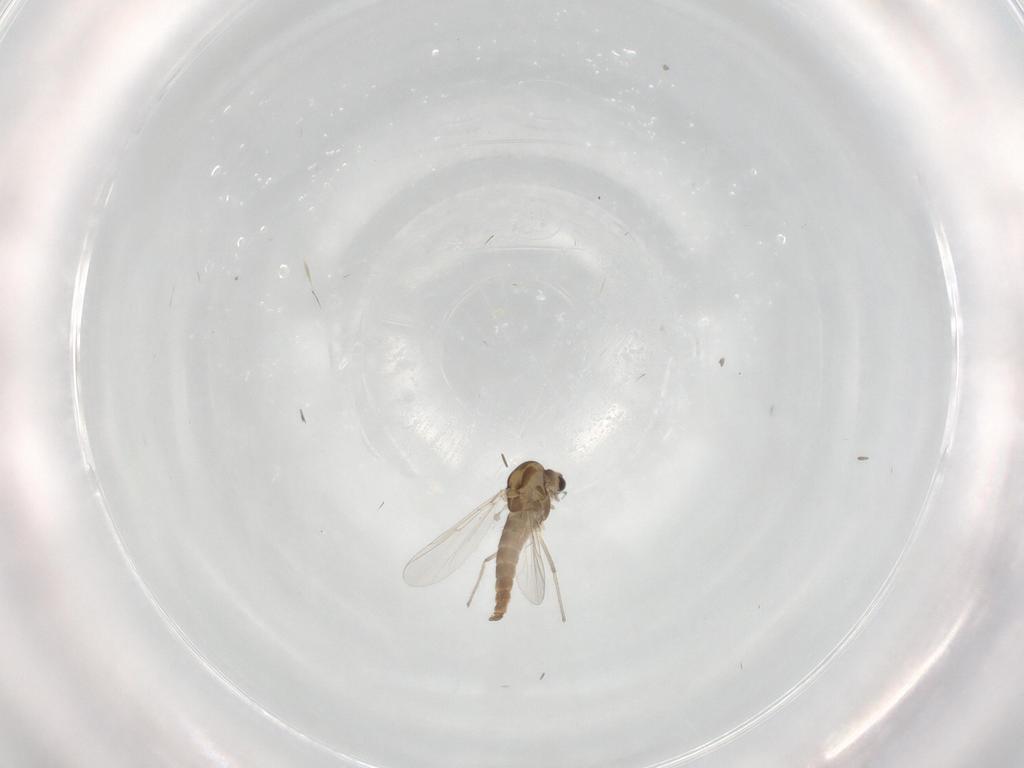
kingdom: Animalia
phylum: Arthropoda
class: Insecta
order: Diptera
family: Chironomidae
